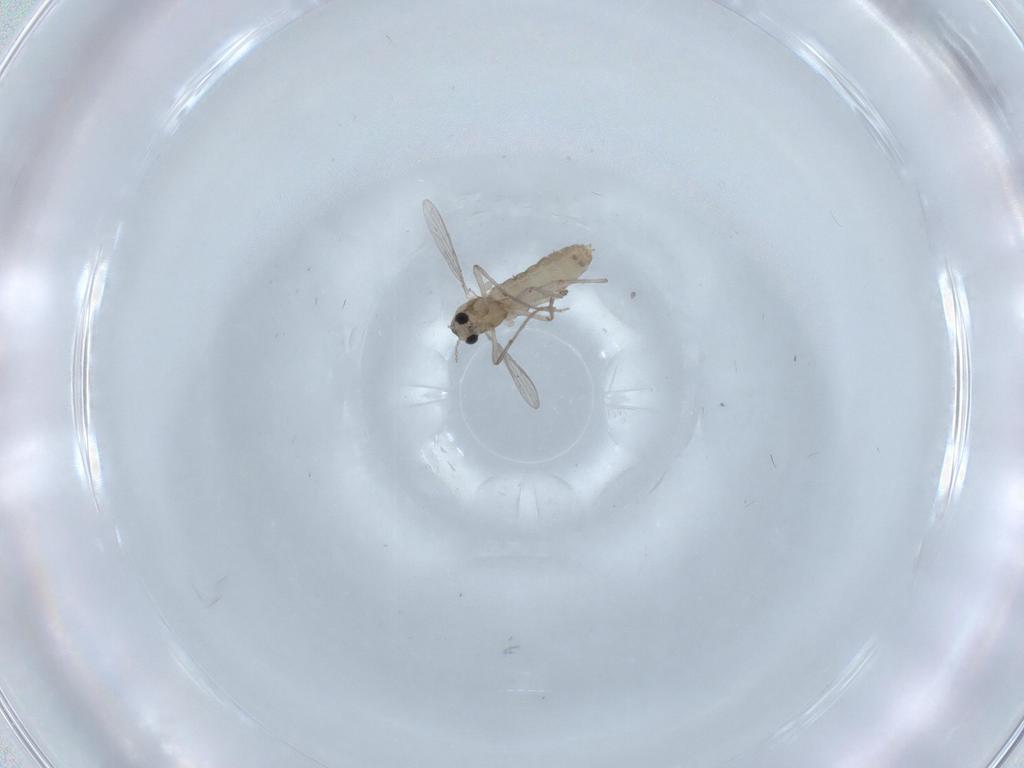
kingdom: Animalia
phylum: Arthropoda
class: Insecta
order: Diptera
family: Chironomidae
